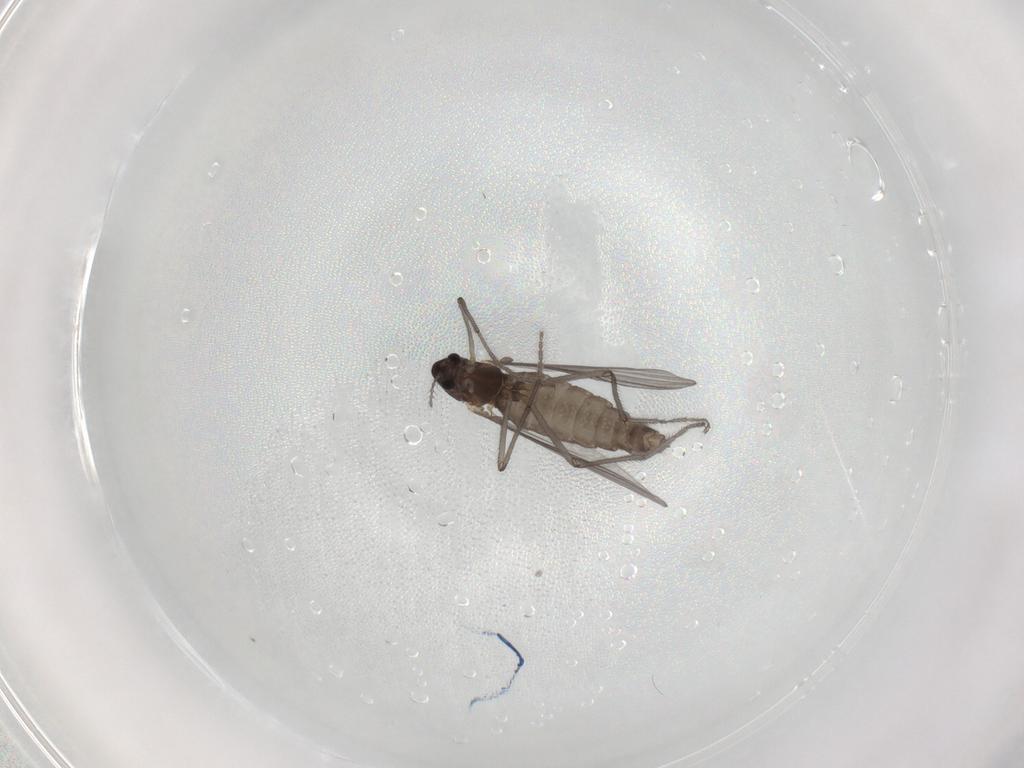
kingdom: Animalia
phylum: Arthropoda
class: Insecta
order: Diptera
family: Chironomidae
